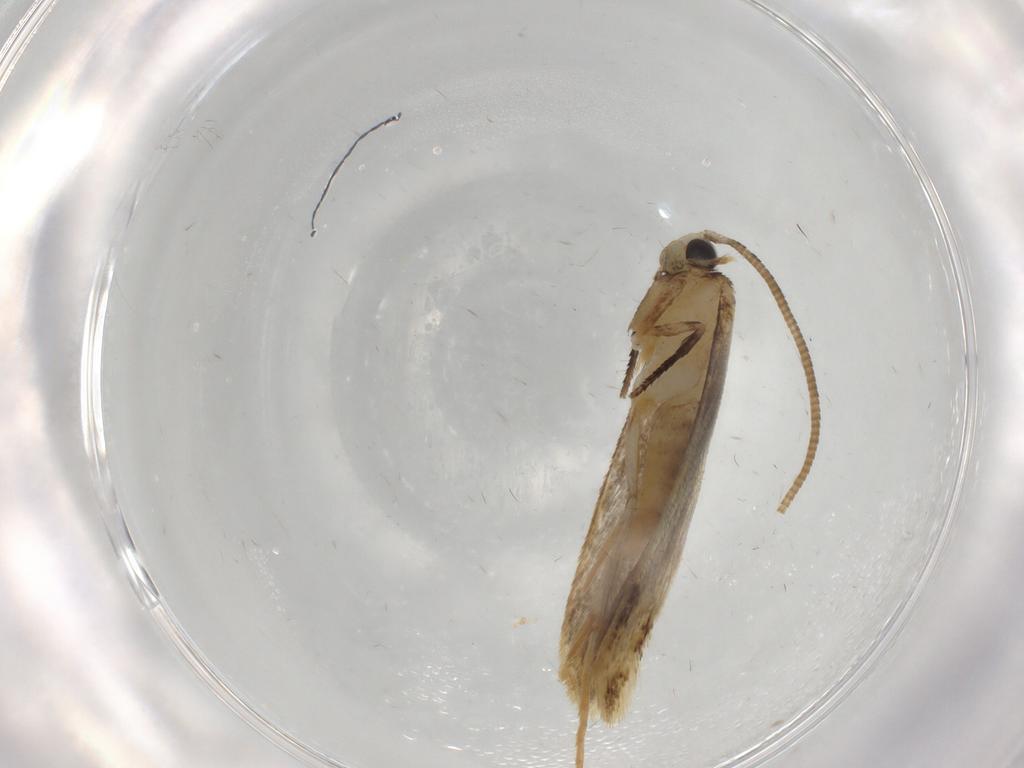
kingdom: Animalia
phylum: Arthropoda
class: Insecta
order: Lepidoptera
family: Tineidae
